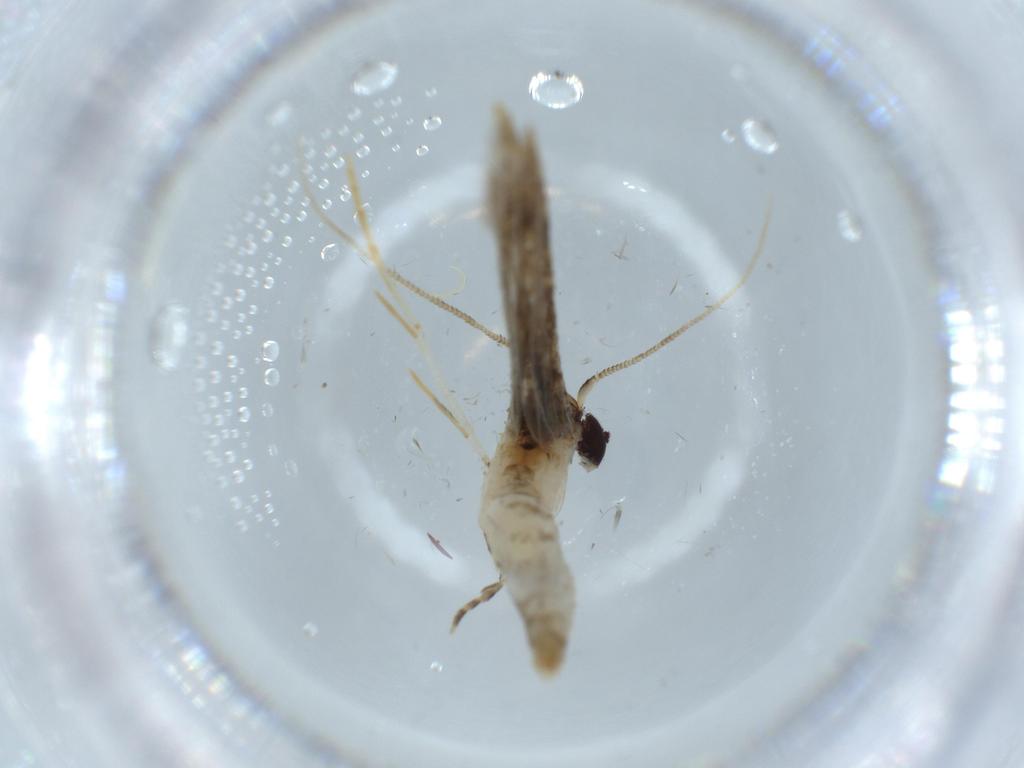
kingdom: Animalia
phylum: Arthropoda
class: Insecta
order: Lepidoptera
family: Tineidae
